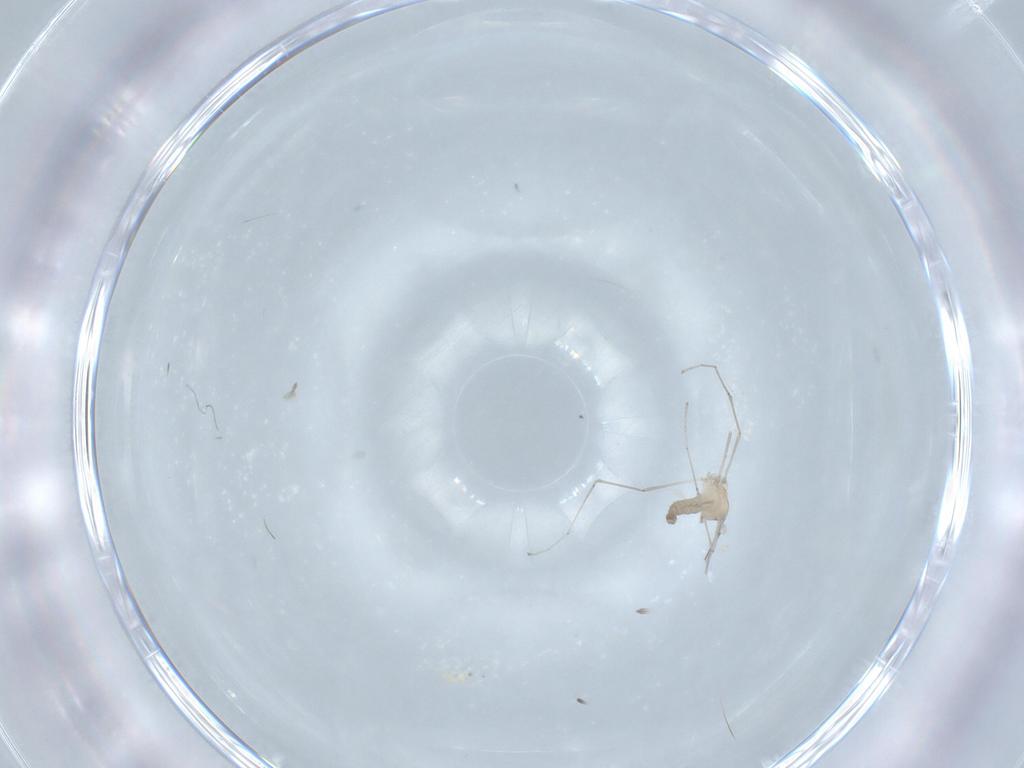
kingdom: Animalia
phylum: Arthropoda
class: Insecta
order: Diptera
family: Cecidomyiidae
